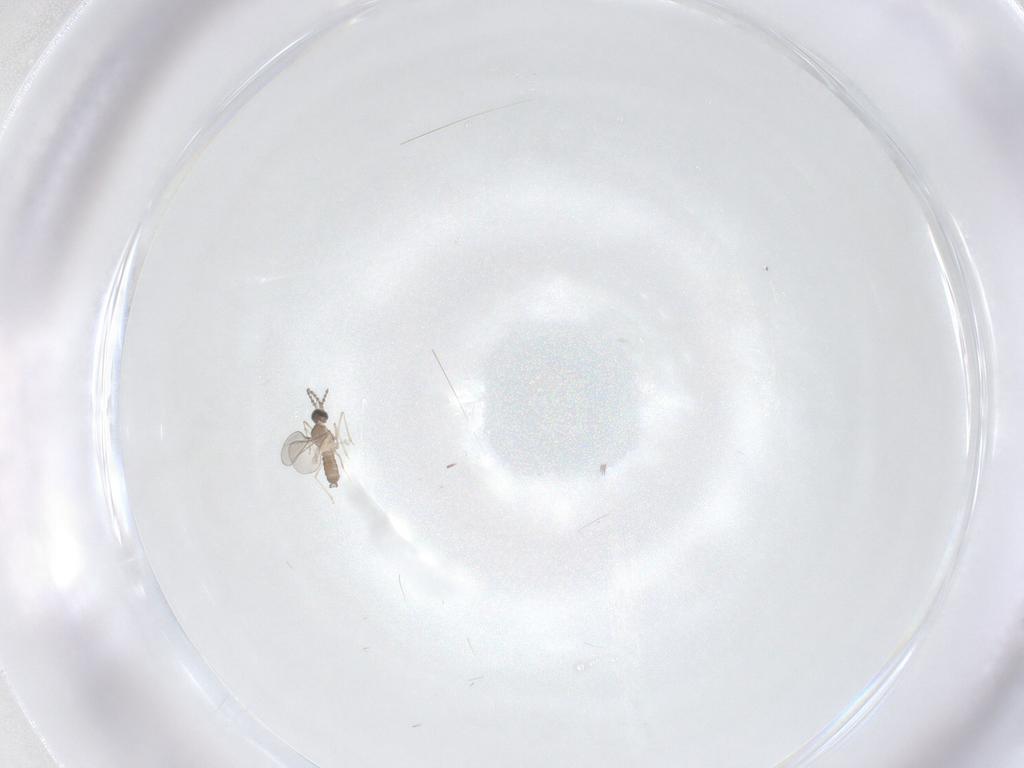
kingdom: Animalia
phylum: Arthropoda
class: Insecta
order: Diptera
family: Cecidomyiidae
